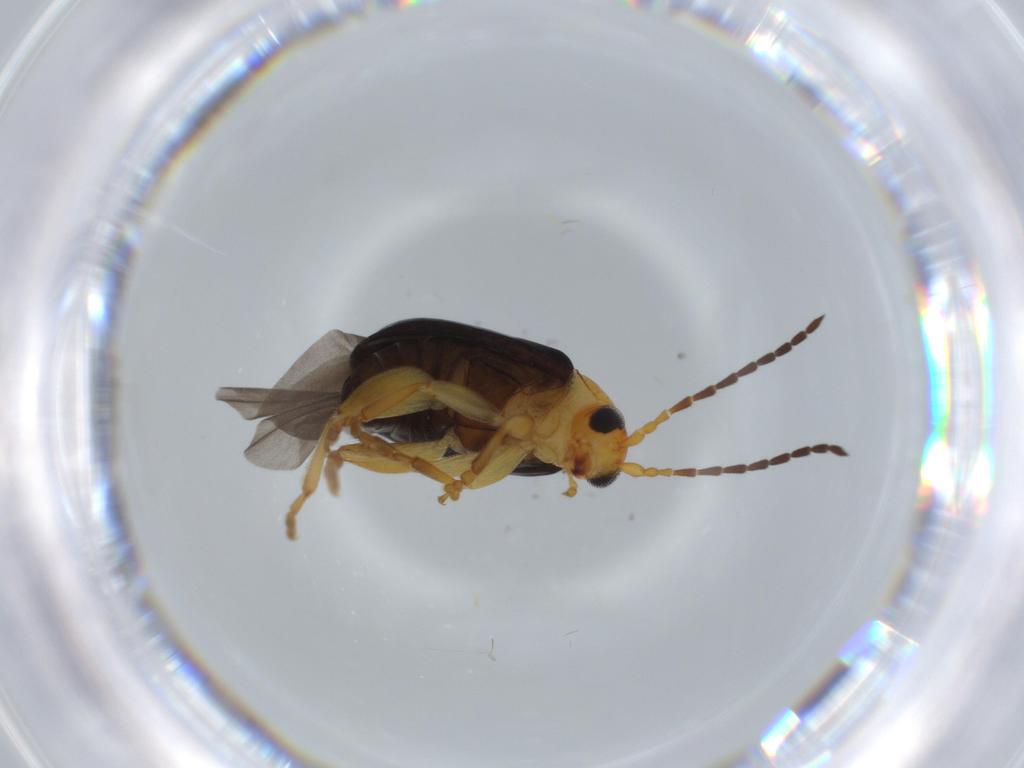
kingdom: Animalia
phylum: Arthropoda
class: Insecta
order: Coleoptera
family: Chrysomelidae
